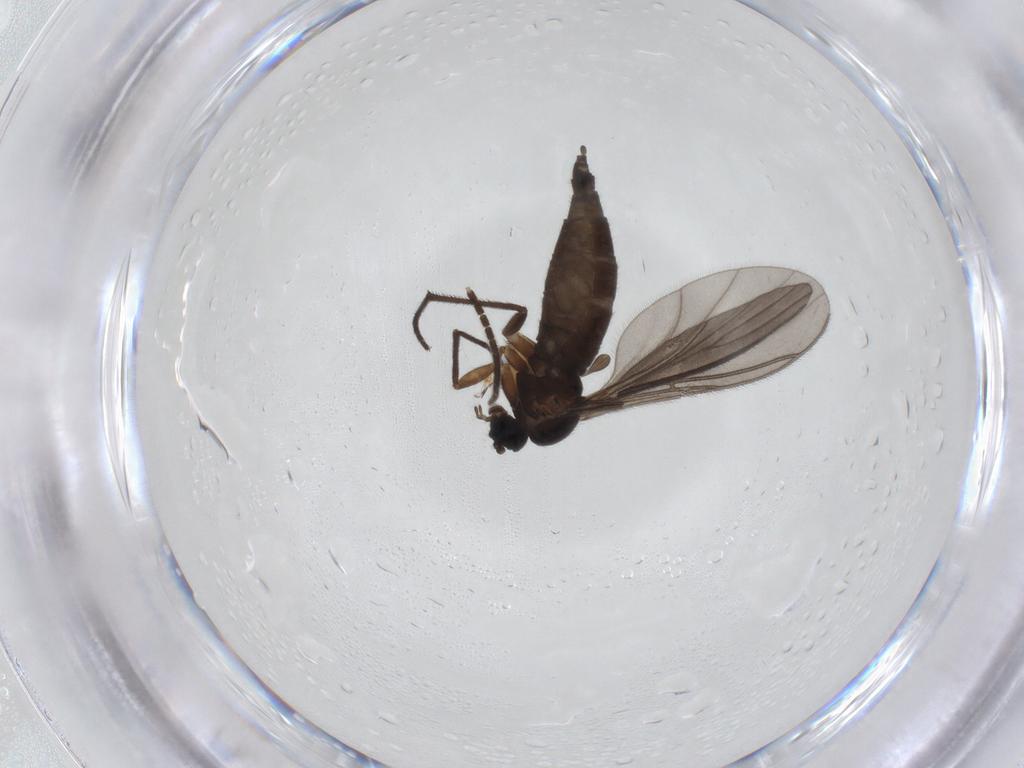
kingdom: Animalia
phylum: Arthropoda
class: Insecta
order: Diptera
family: Sciaridae
